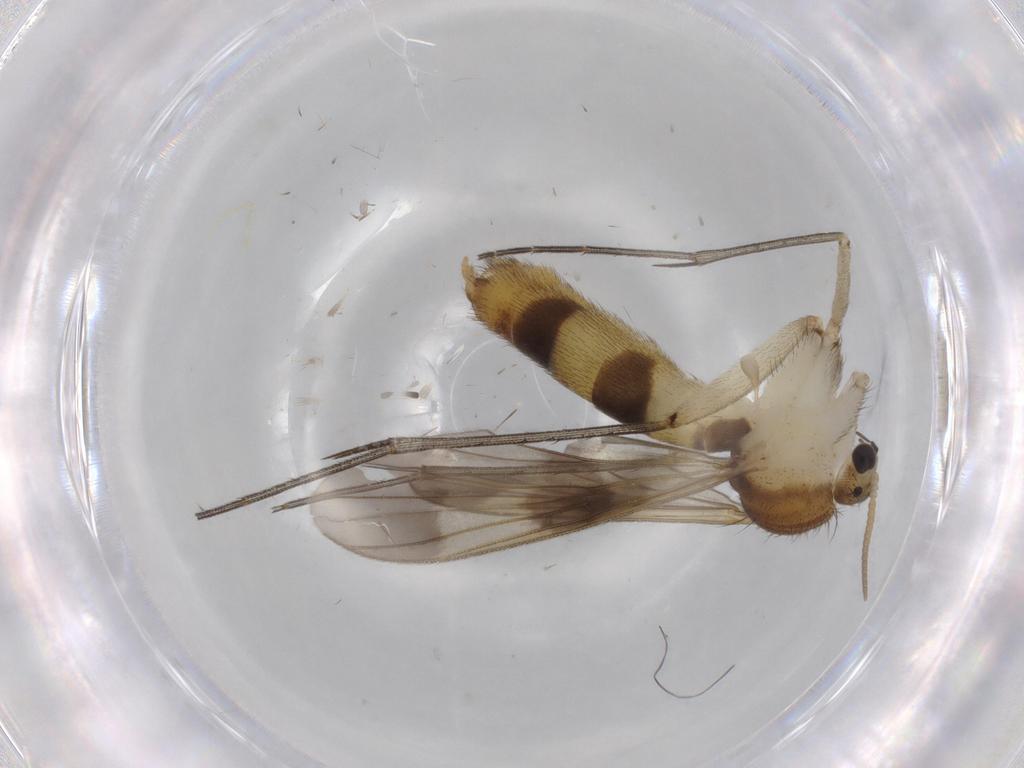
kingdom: Animalia
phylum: Arthropoda
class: Insecta
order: Diptera
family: Mycetophilidae
